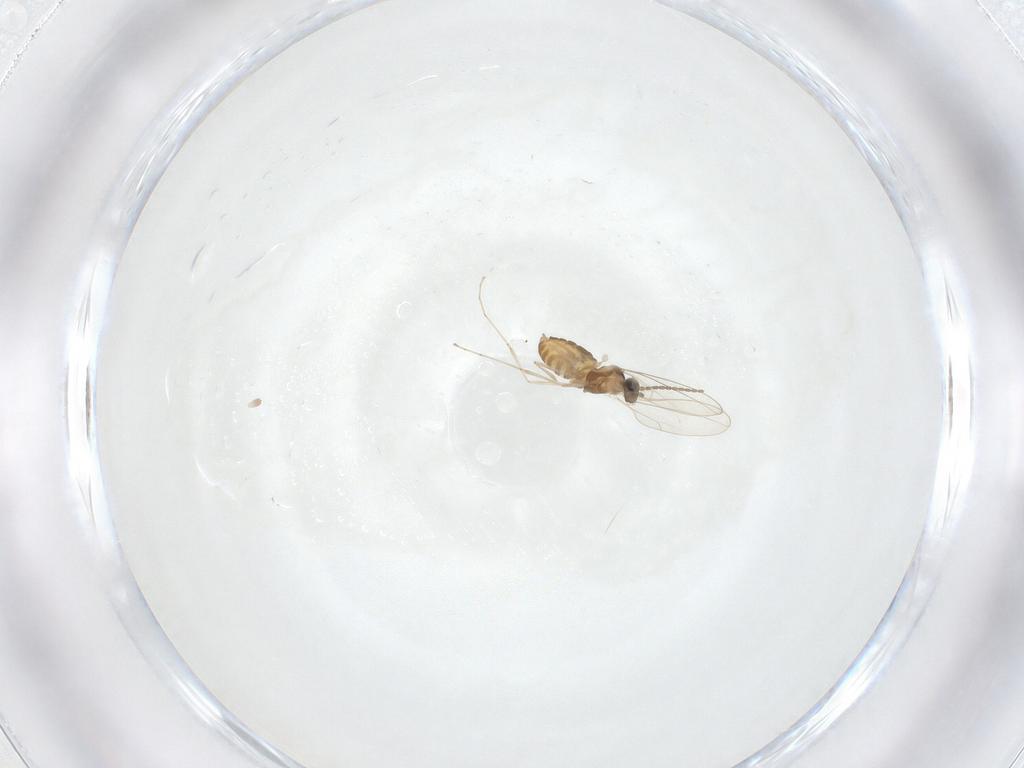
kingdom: Animalia
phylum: Arthropoda
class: Insecta
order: Diptera
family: Cecidomyiidae
